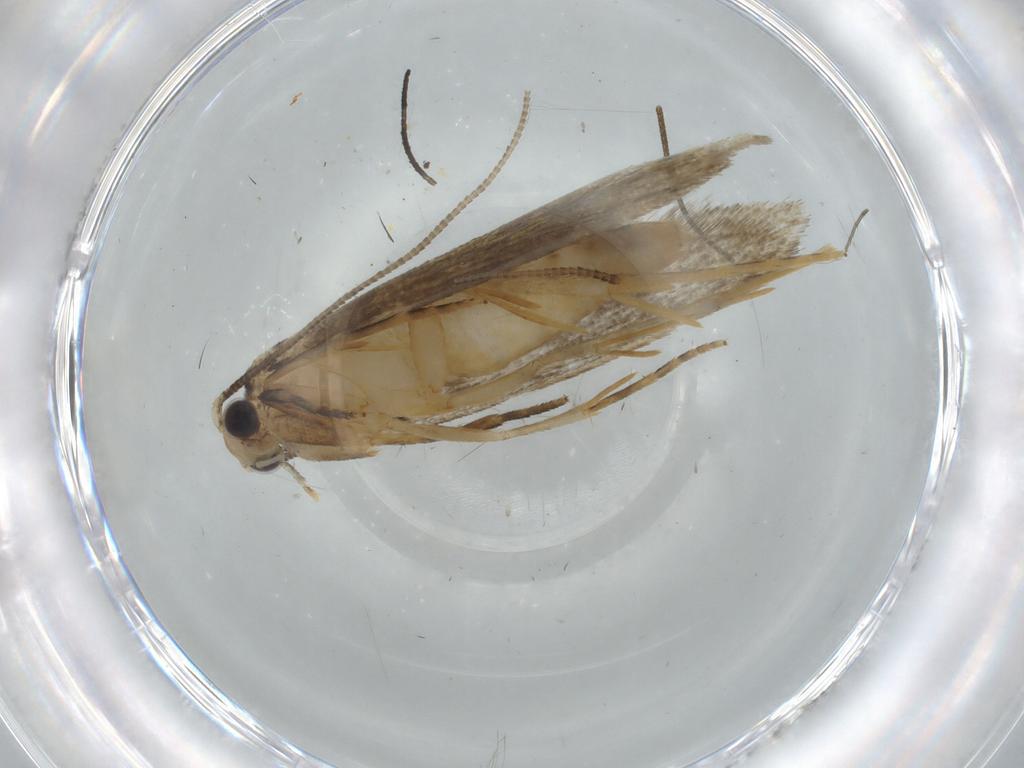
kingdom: Animalia
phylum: Arthropoda
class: Insecta
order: Lepidoptera
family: Tineidae
